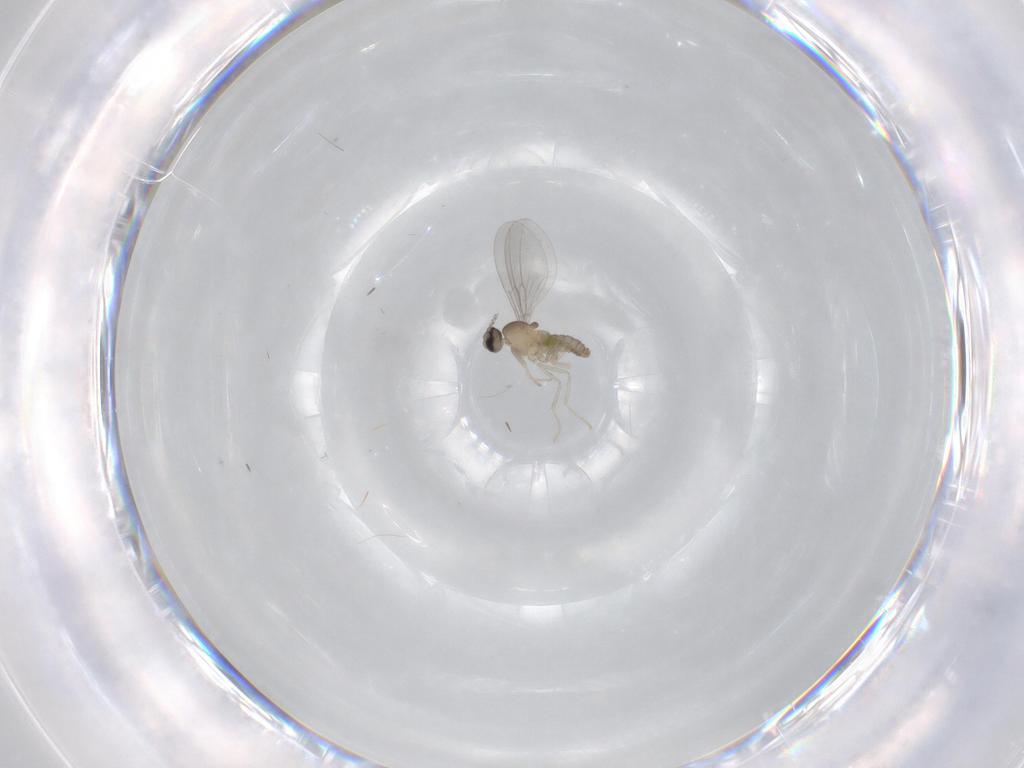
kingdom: Animalia
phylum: Arthropoda
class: Insecta
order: Diptera
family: Cecidomyiidae
